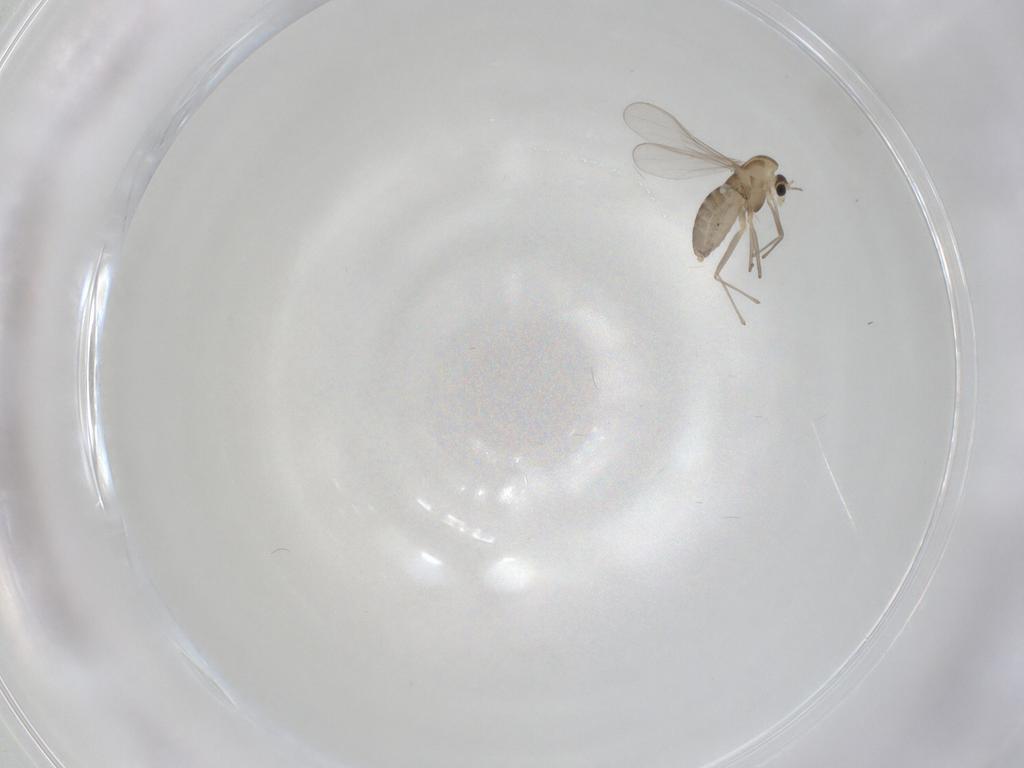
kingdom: Animalia
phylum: Arthropoda
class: Insecta
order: Diptera
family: Chironomidae
